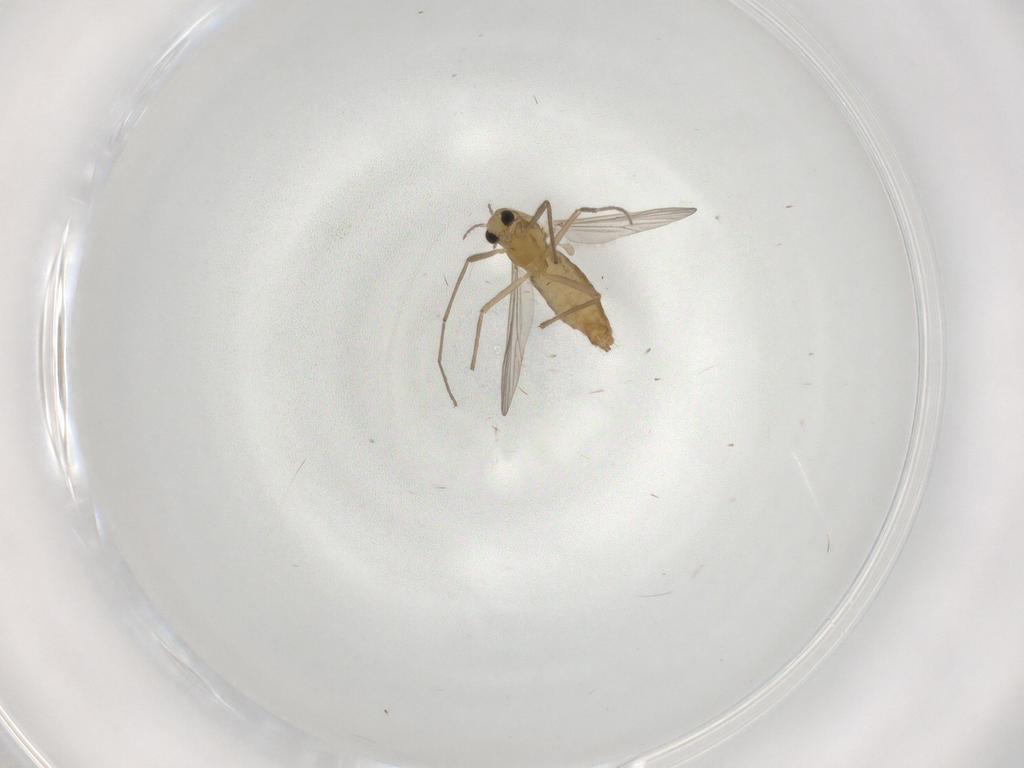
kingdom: Animalia
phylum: Arthropoda
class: Insecta
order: Diptera
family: Chironomidae
